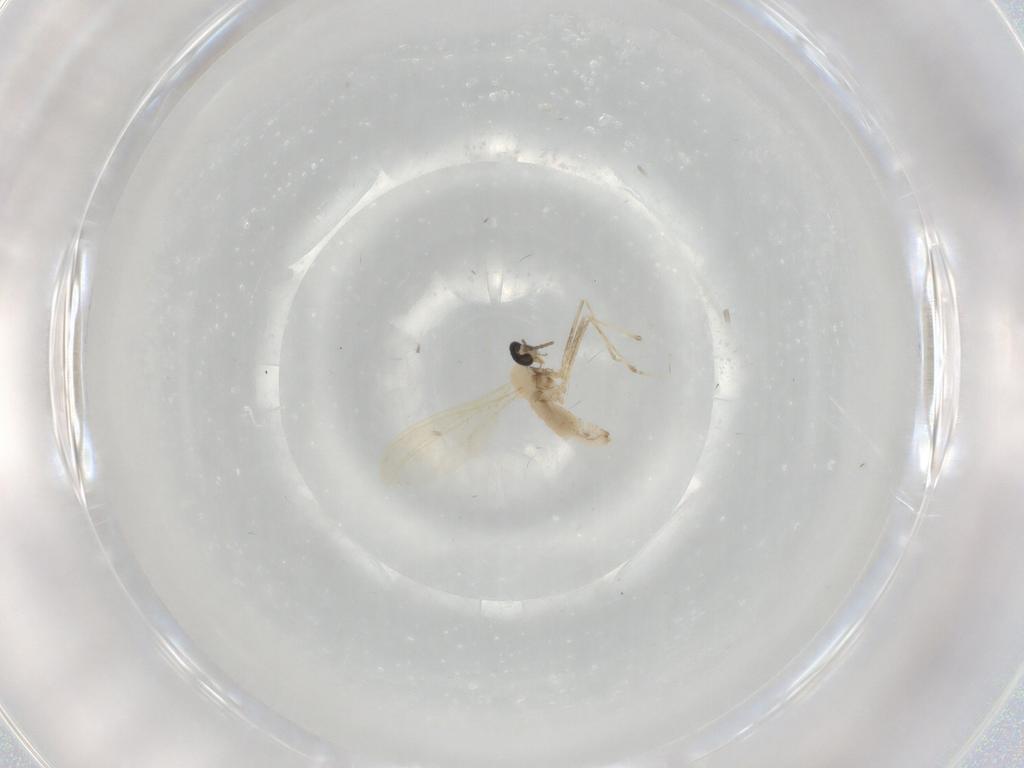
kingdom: Animalia
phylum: Arthropoda
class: Insecta
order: Diptera
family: Cecidomyiidae
